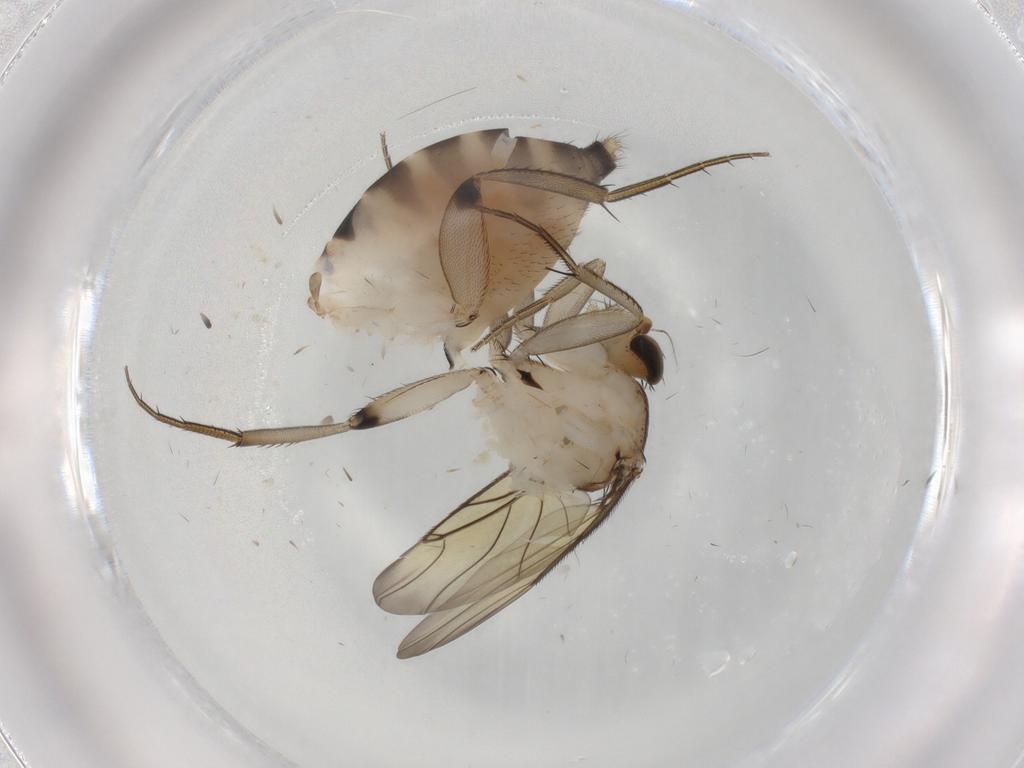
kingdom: Animalia
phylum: Arthropoda
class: Insecta
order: Diptera
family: Phoridae
